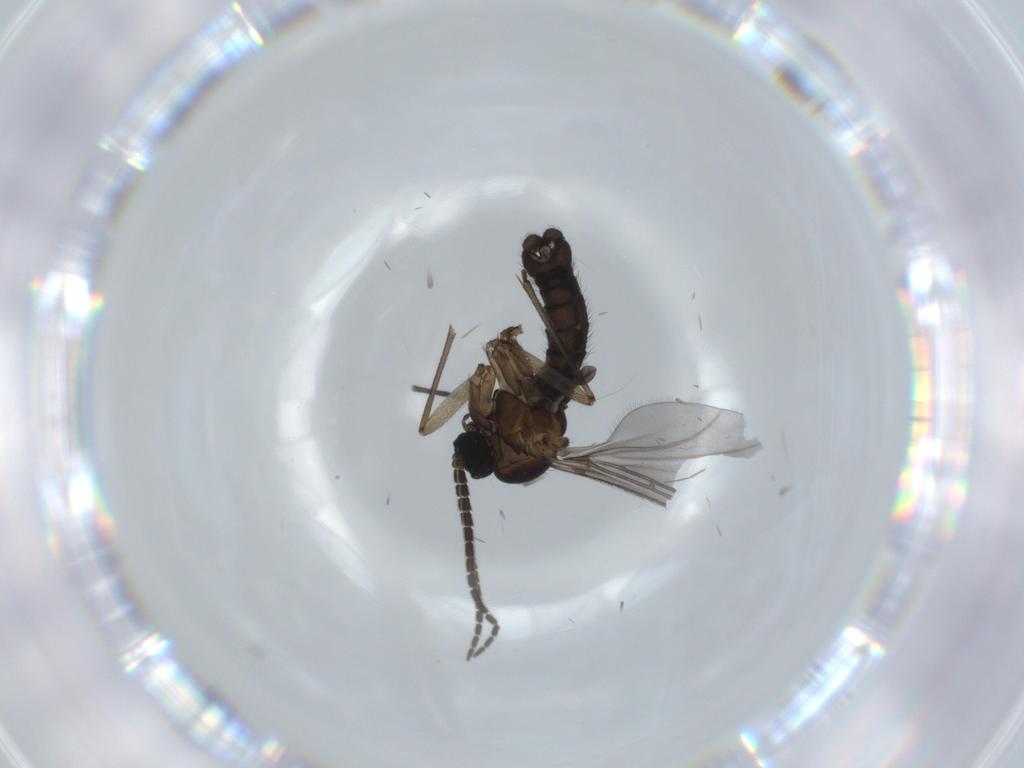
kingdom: Animalia
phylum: Arthropoda
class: Insecta
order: Diptera
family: Sciaridae
